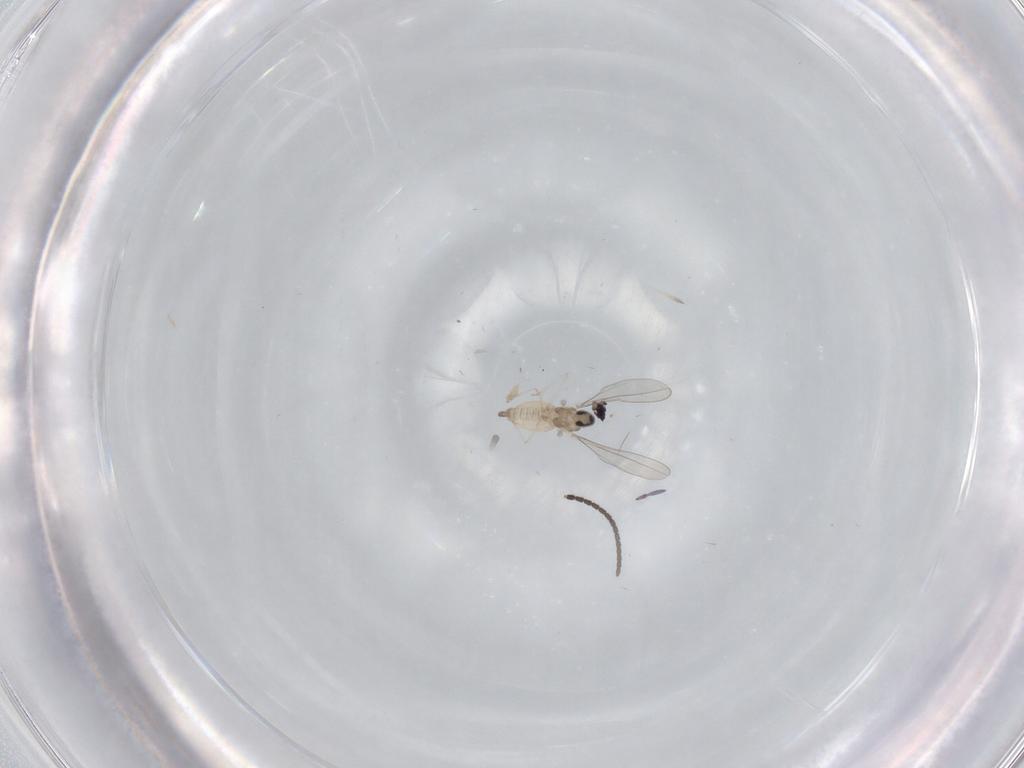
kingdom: Animalia
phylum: Arthropoda
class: Insecta
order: Diptera
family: Cecidomyiidae
